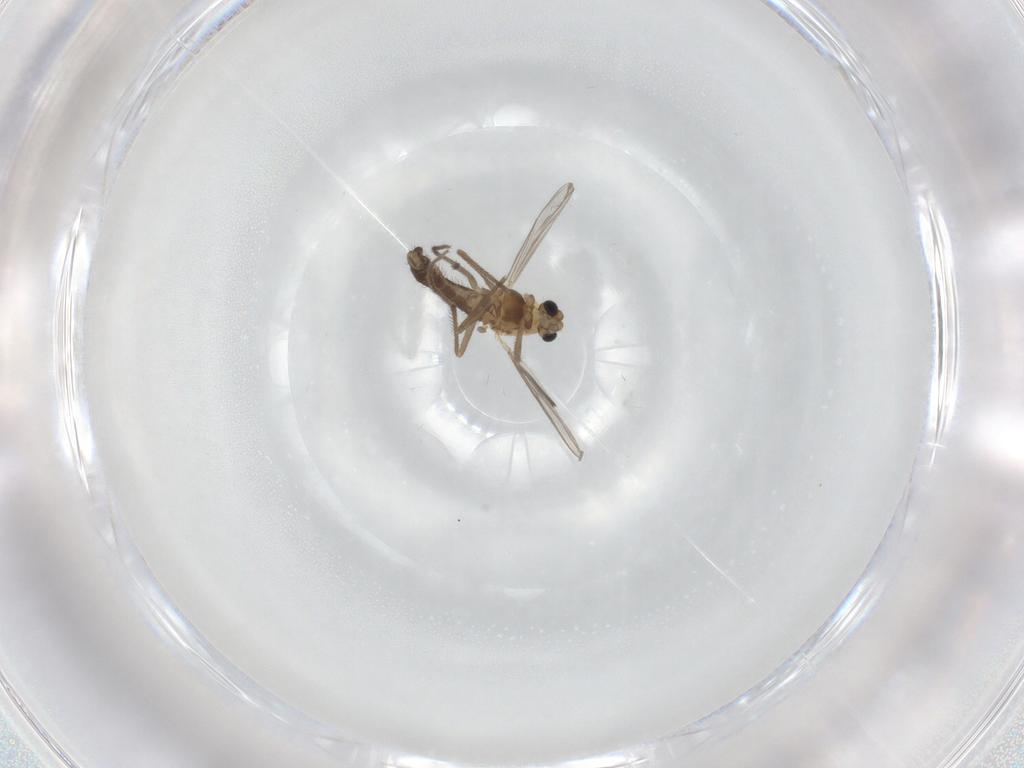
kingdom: Animalia
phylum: Arthropoda
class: Insecta
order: Diptera
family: Chironomidae
